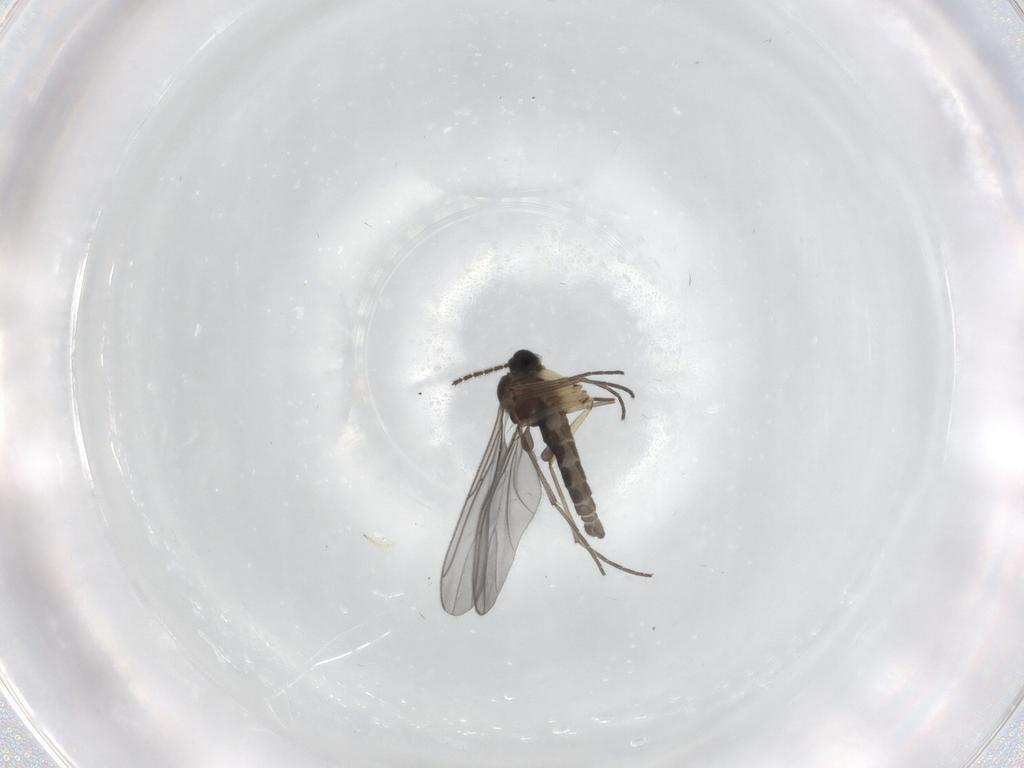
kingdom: Animalia
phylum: Arthropoda
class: Insecta
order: Diptera
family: Sciaridae
